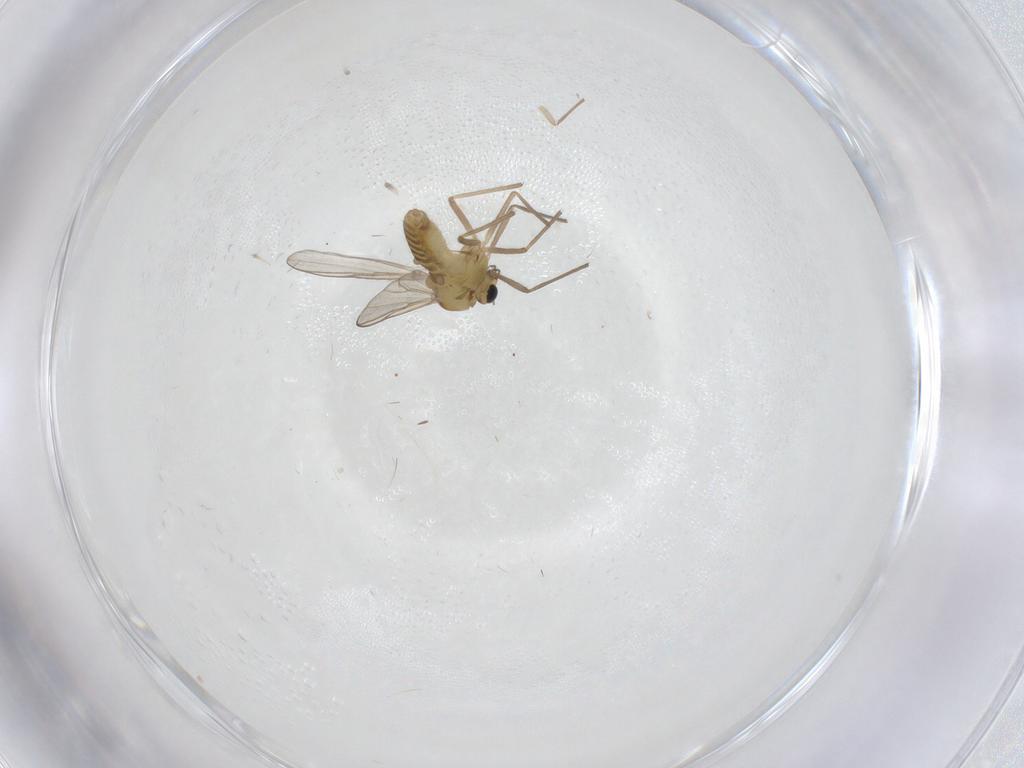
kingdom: Animalia
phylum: Arthropoda
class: Insecta
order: Diptera
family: Chironomidae
